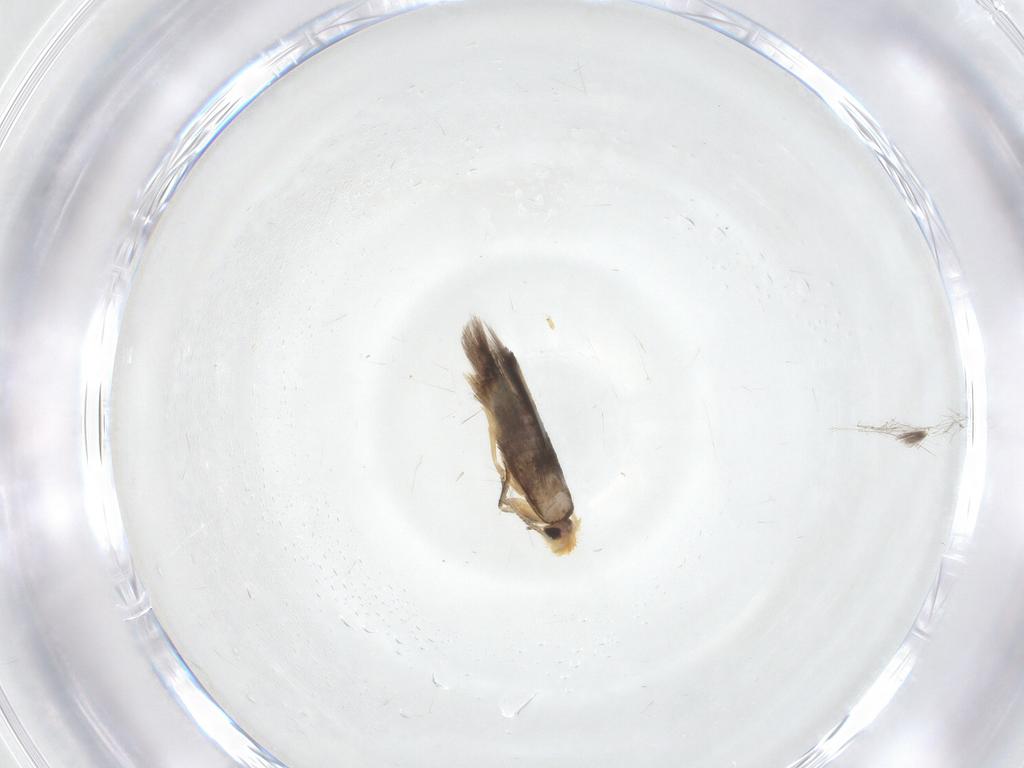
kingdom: Animalia
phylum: Arthropoda
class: Insecta
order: Lepidoptera
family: Nepticulidae
